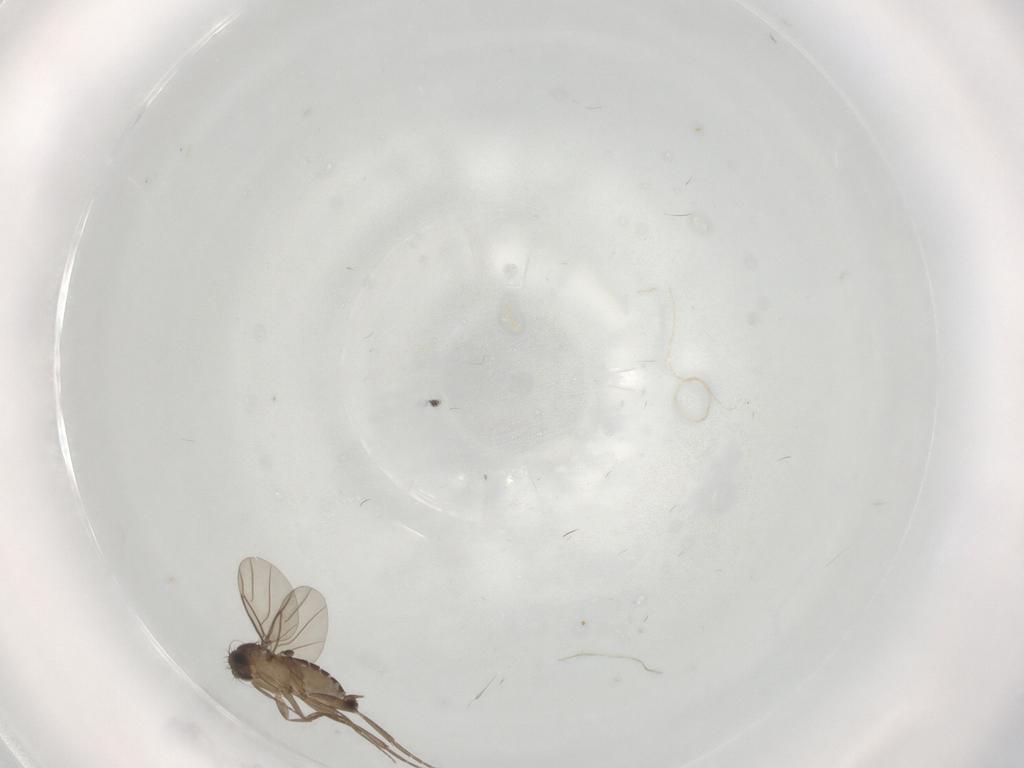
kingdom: Animalia
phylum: Arthropoda
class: Insecta
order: Diptera
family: Phoridae
